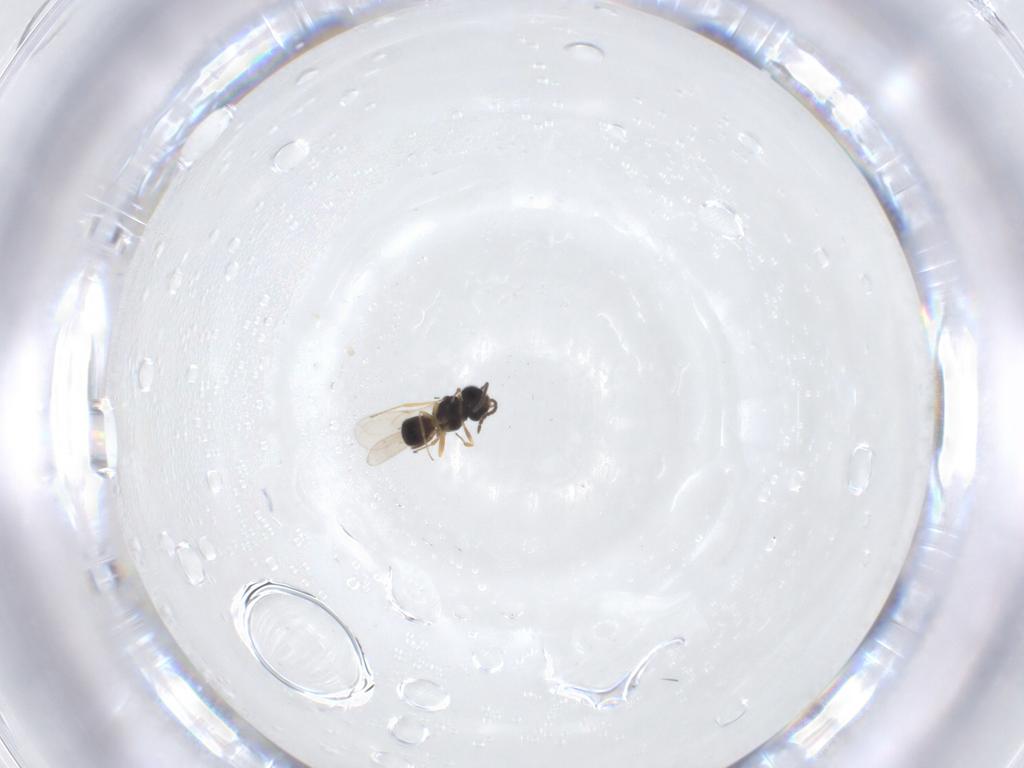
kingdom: Animalia
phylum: Arthropoda
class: Insecta
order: Hymenoptera
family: Scelionidae
